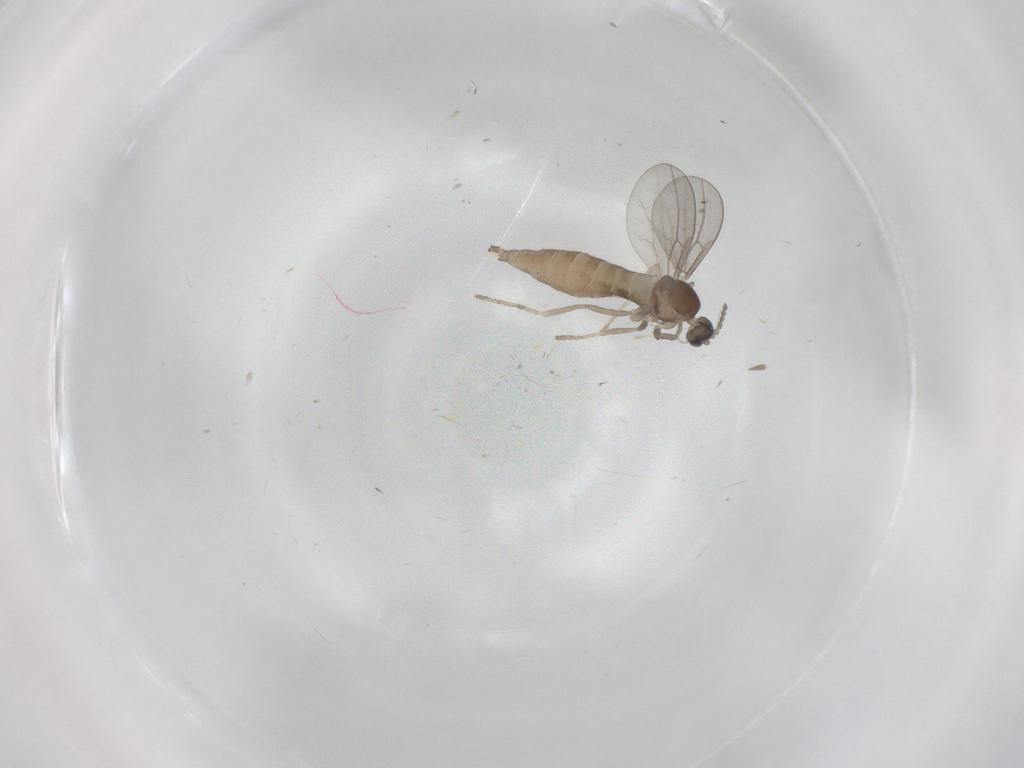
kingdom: Animalia
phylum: Arthropoda
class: Insecta
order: Diptera
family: Cecidomyiidae
